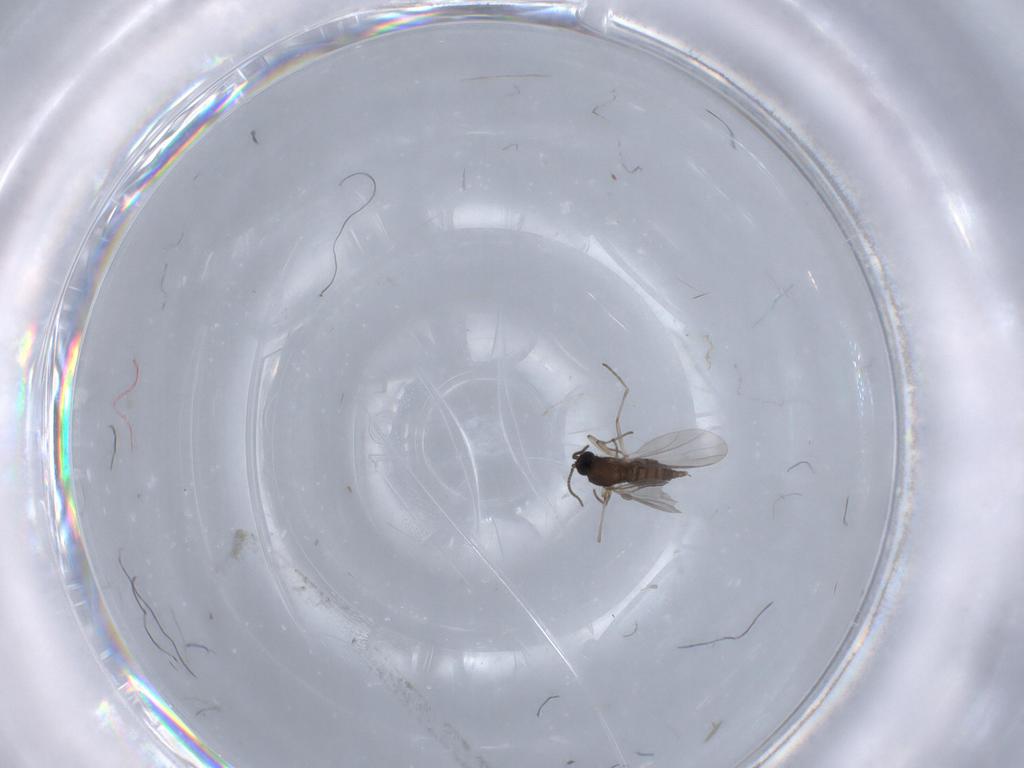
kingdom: Animalia
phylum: Arthropoda
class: Insecta
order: Diptera
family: Sciaridae
